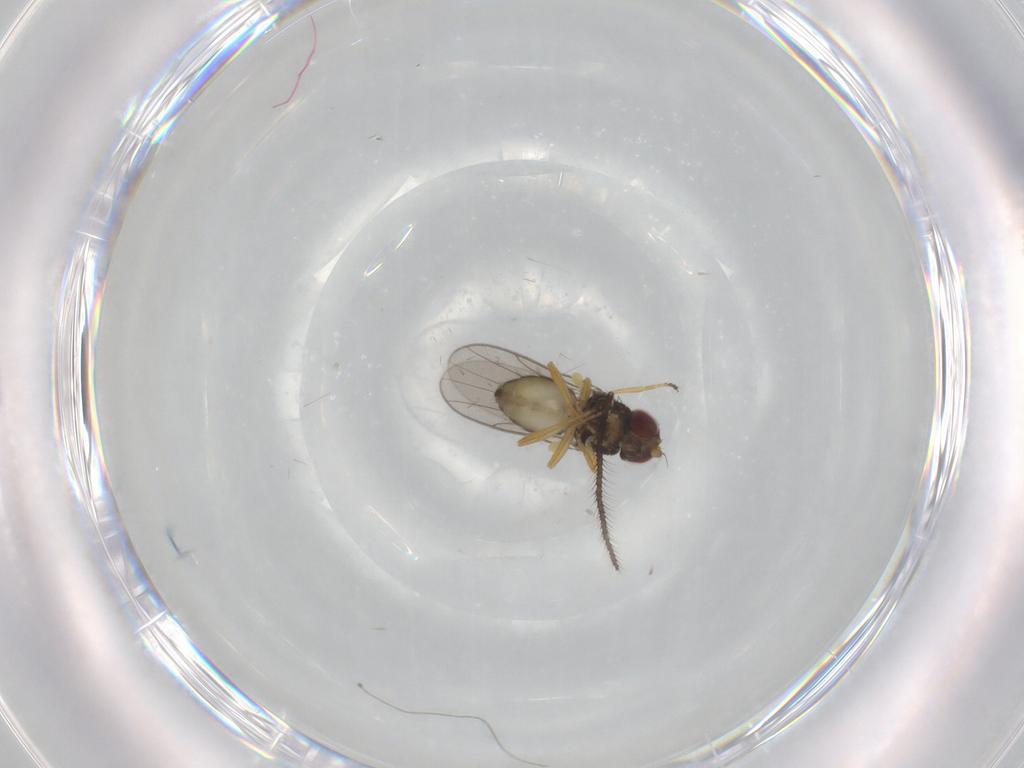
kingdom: Animalia
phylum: Arthropoda
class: Insecta
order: Diptera
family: Chloropidae
